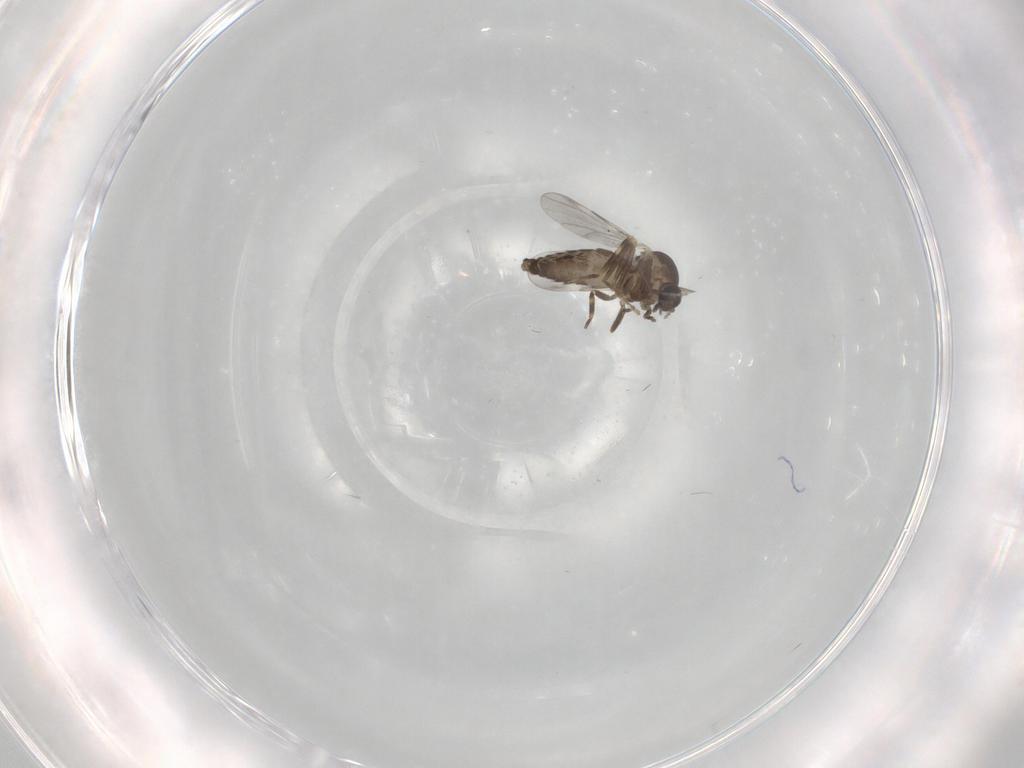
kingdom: Animalia
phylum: Arthropoda
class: Insecta
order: Diptera
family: Ceratopogonidae
